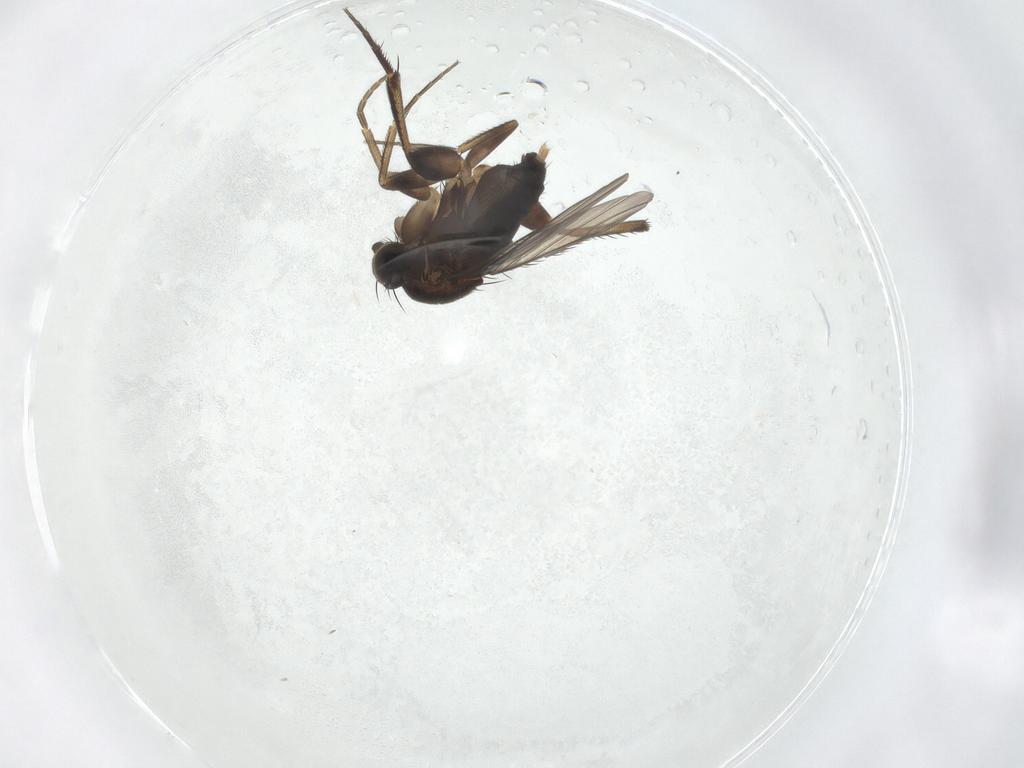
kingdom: Animalia
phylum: Arthropoda
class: Insecta
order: Diptera
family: Phoridae
